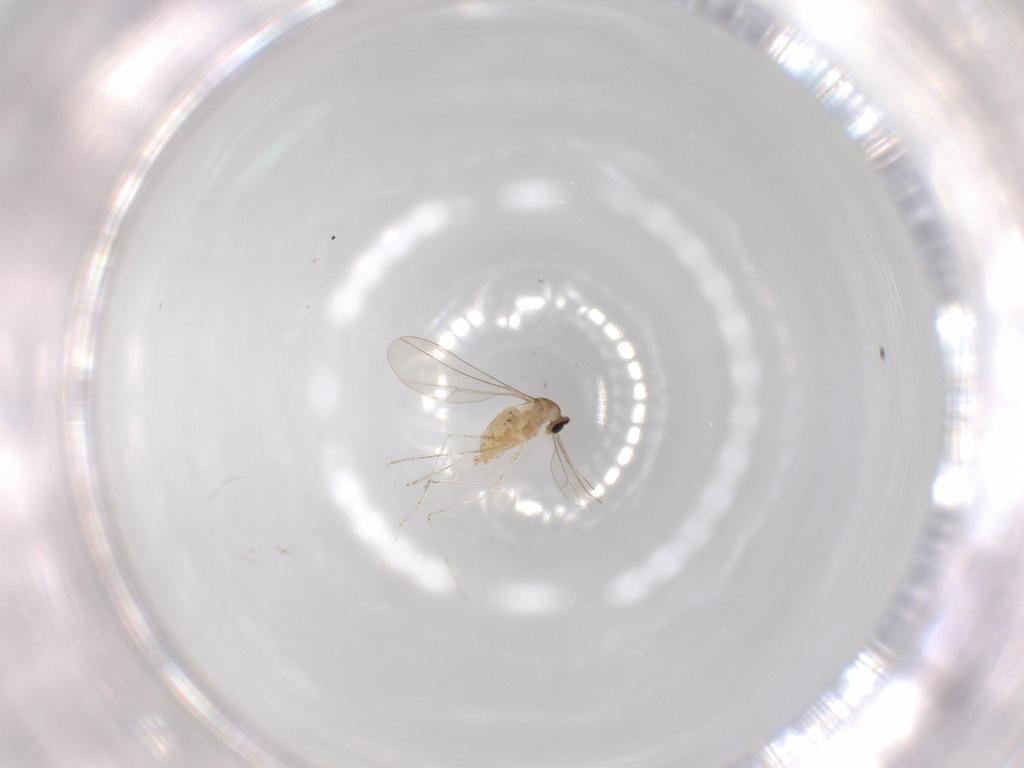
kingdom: Animalia
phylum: Arthropoda
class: Insecta
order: Diptera
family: Cecidomyiidae
